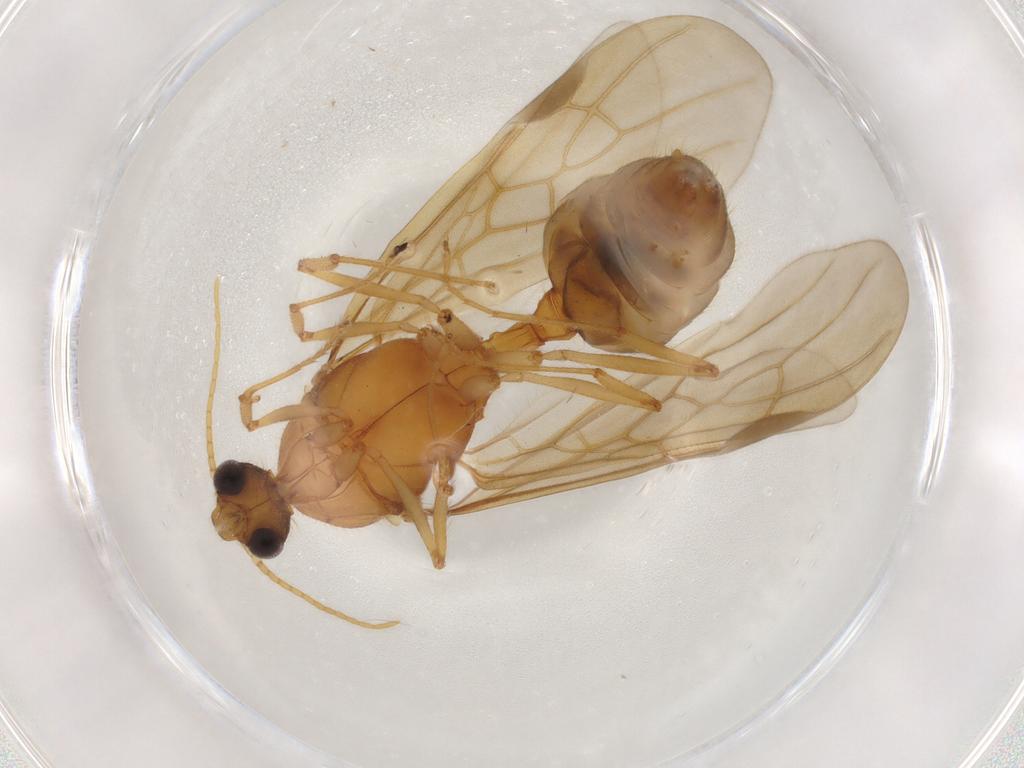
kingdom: Animalia
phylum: Arthropoda
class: Insecta
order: Hymenoptera
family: Formicidae
